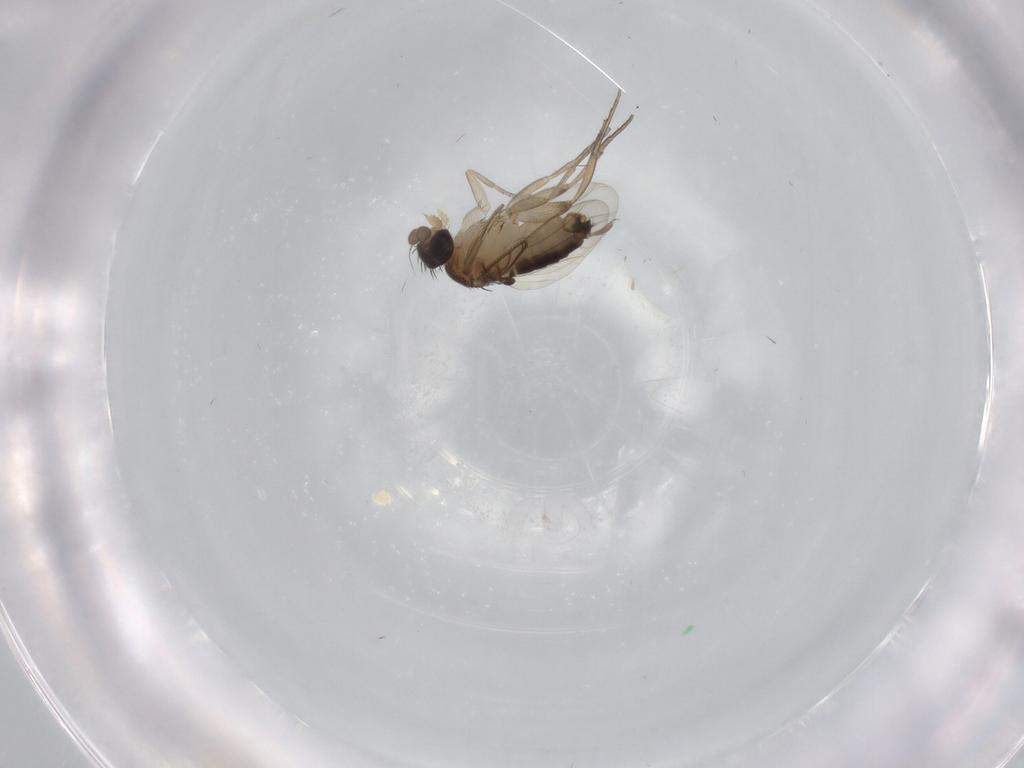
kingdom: Animalia
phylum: Arthropoda
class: Insecta
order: Diptera
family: Phoridae
